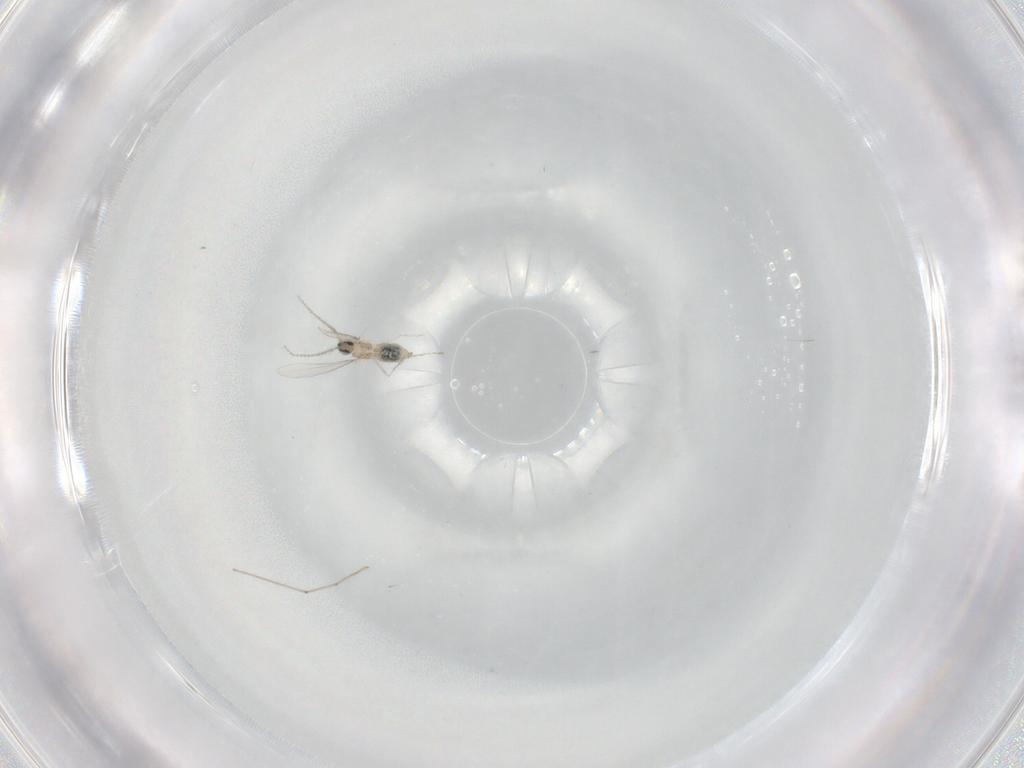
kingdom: Animalia
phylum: Arthropoda
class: Insecta
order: Diptera
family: Cecidomyiidae
